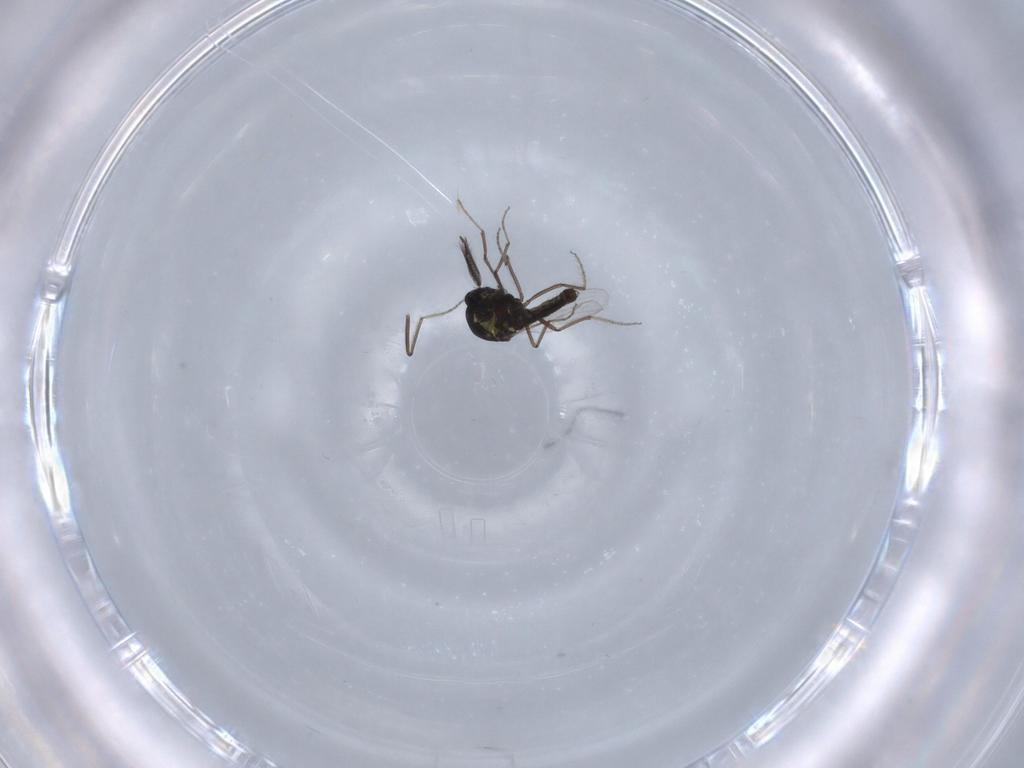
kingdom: Animalia
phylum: Arthropoda
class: Insecta
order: Diptera
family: Ceratopogonidae
